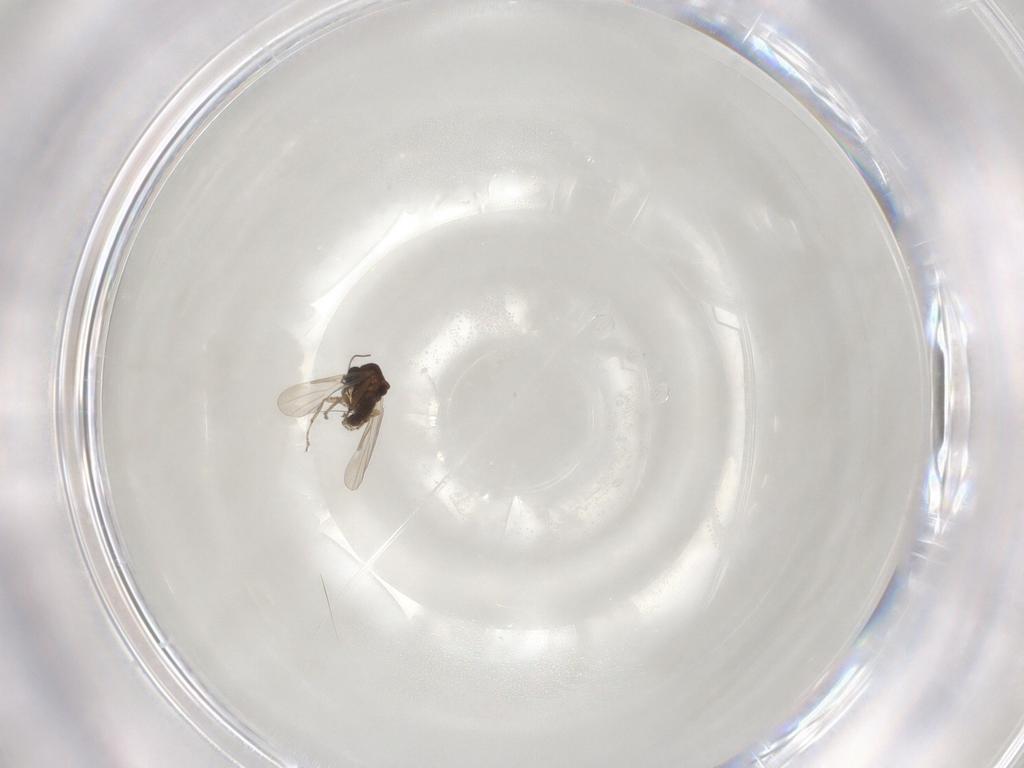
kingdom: Animalia
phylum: Arthropoda
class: Insecta
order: Diptera
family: Ceratopogonidae
